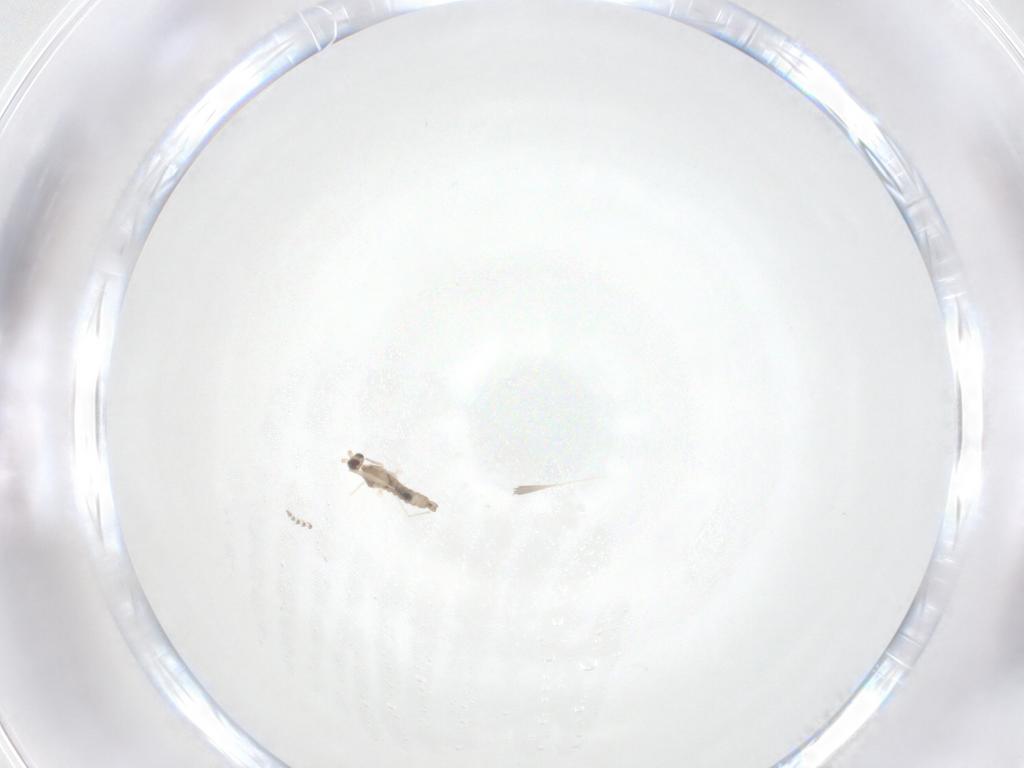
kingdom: Animalia
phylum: Arthropoda
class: Insecta
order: Diptera
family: Cecidomyiidae
